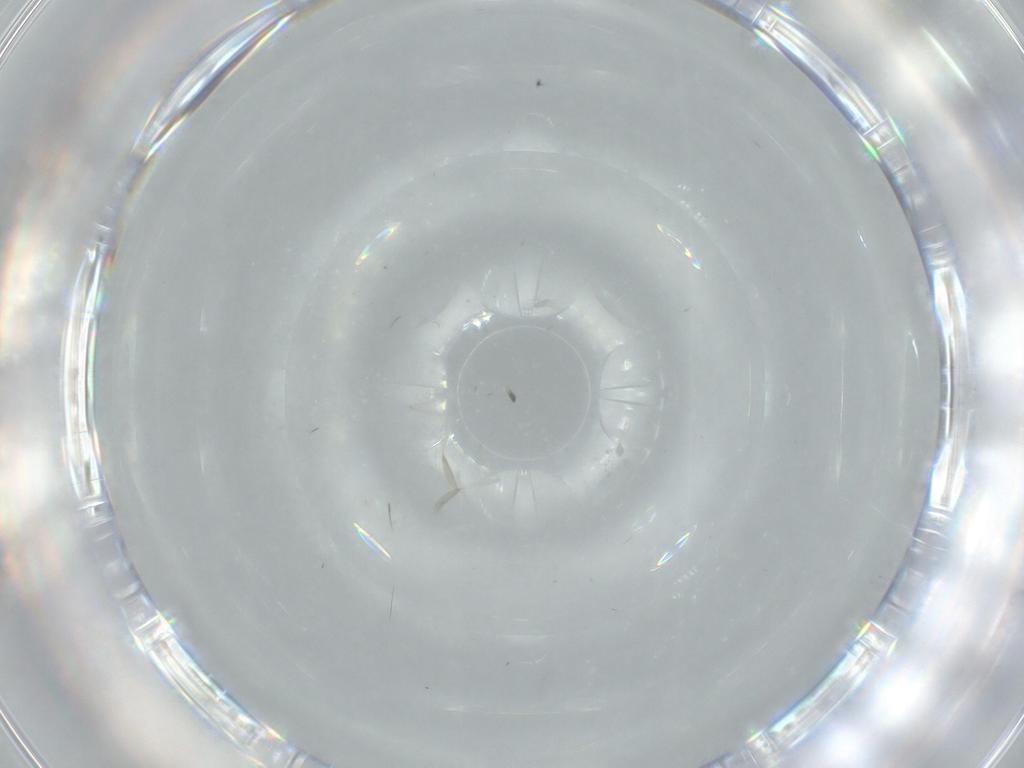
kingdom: Animalia
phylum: Arthropoda
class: Insecta
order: Diptera
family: Cecidomyiidae
